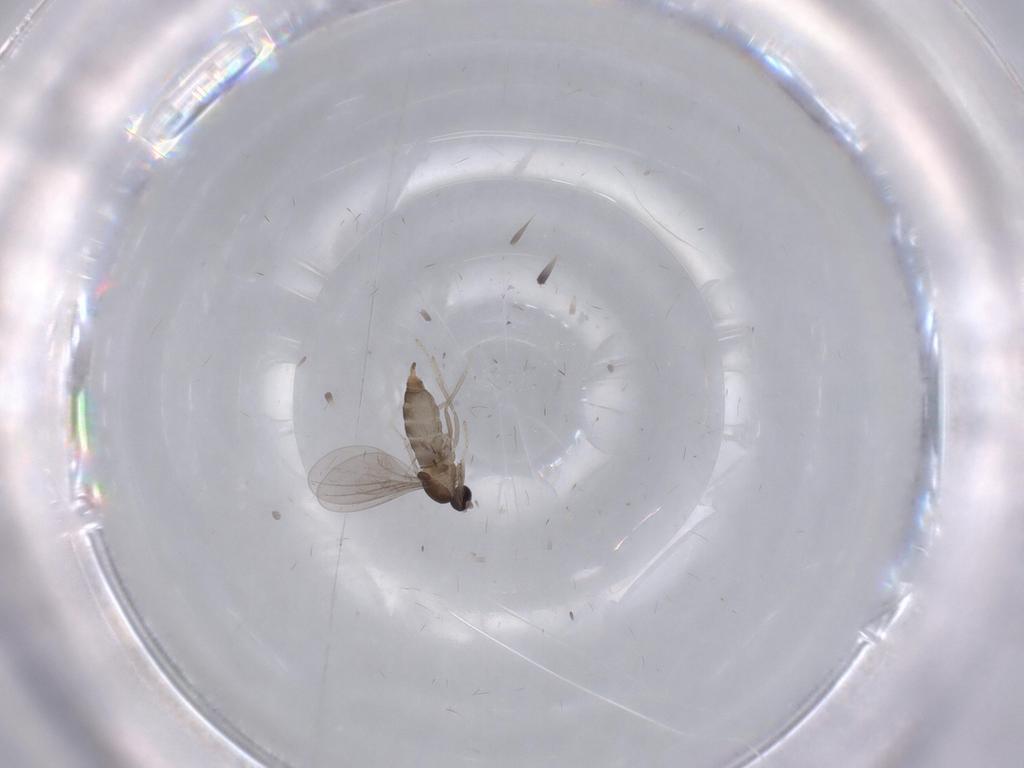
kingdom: Animalia
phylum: Arthropoda
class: Insecta
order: Diptera
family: Cecidomyiidae
